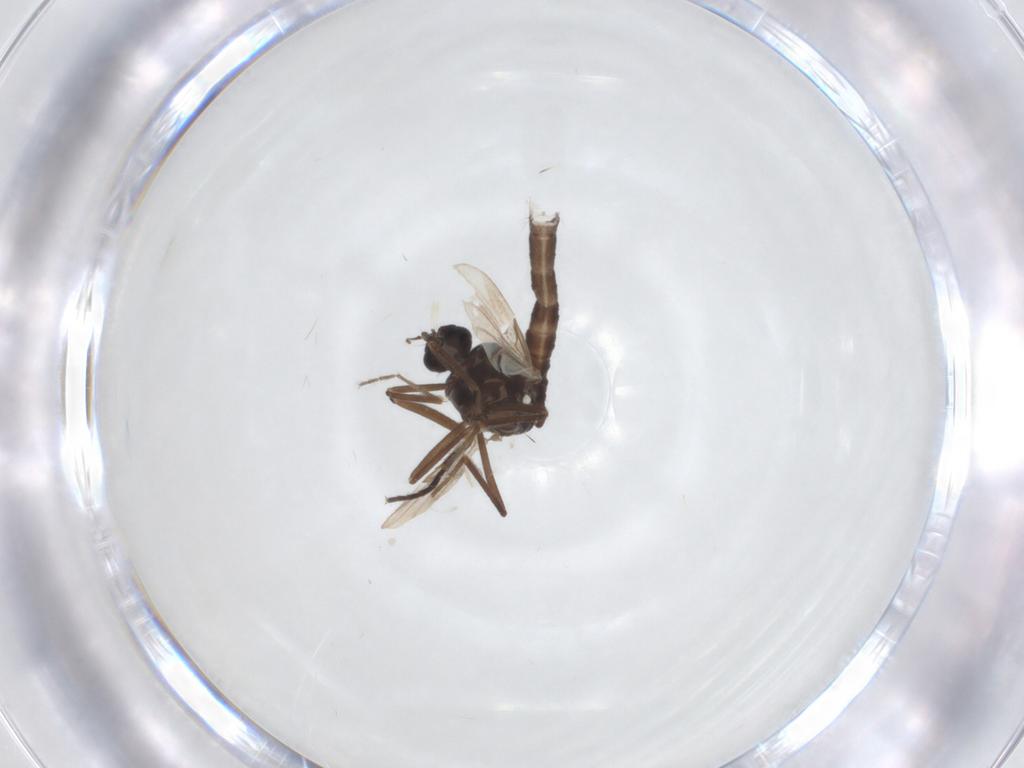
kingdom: Animalia
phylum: Arthropoda
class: Insecta
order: Diptera
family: Ceratopogonidae
